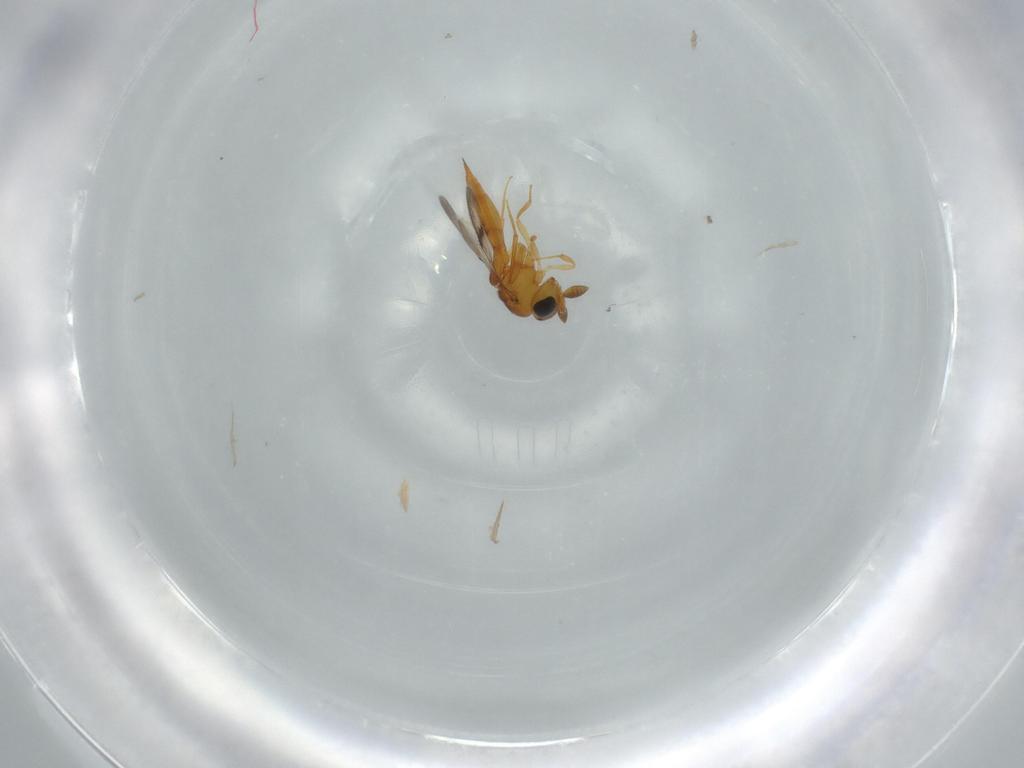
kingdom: Animalia
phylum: Arthropoda
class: Insecta
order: Hymenoptera
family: Scelionidae
